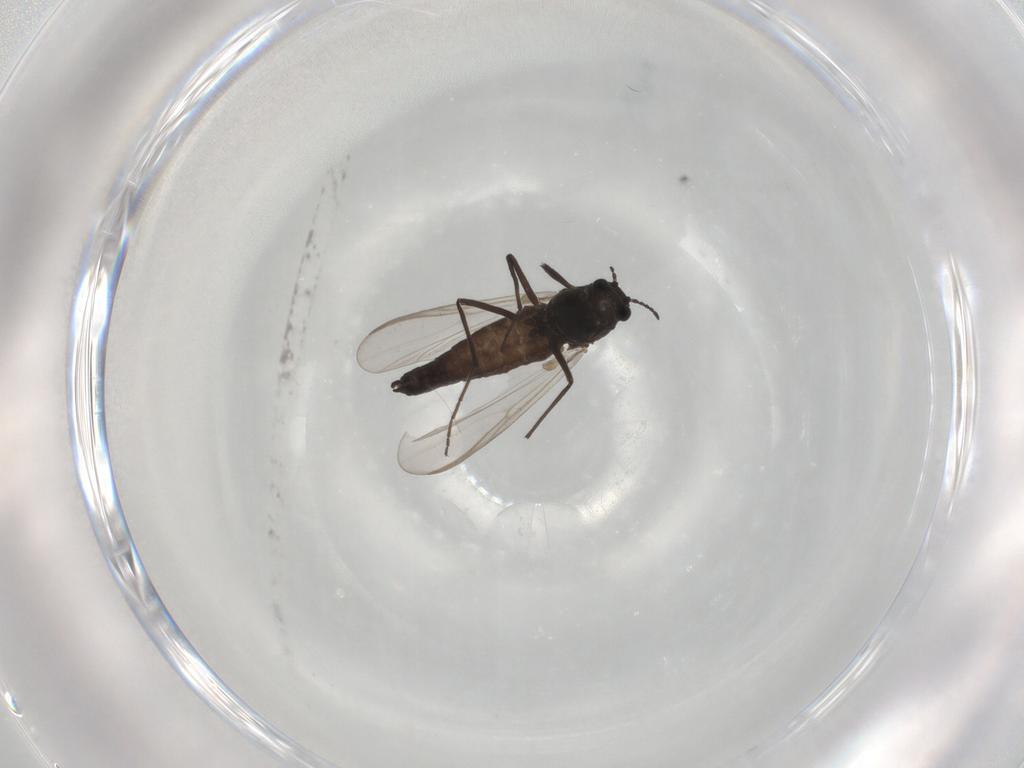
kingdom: Animalia
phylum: Arthropoda
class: Insecta
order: Diptera
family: Chironomidae
